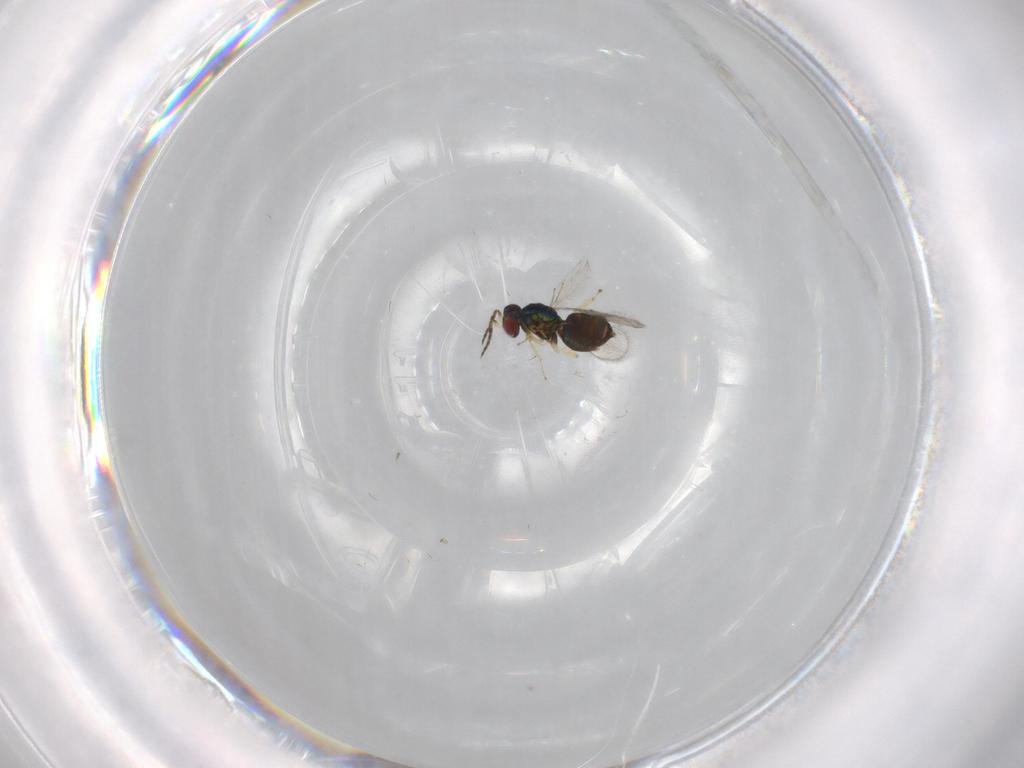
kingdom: Animalia
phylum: Arthropoda
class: Insecta
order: Hymenoptera
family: Eulophidae
